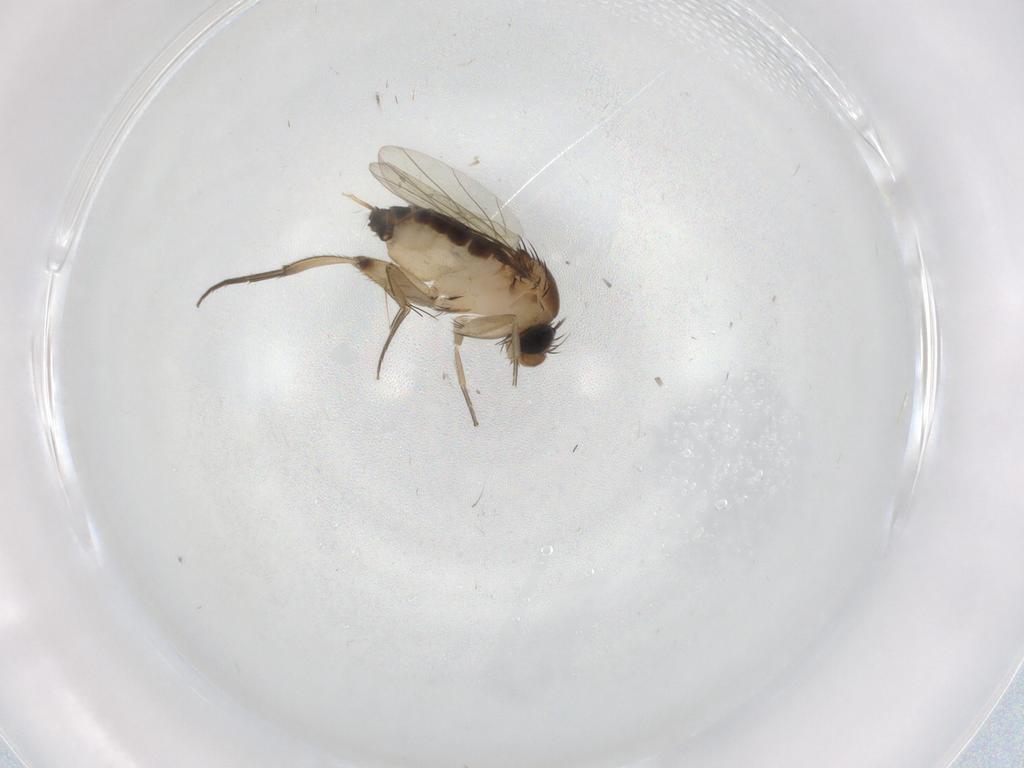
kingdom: Animalia
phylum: Arthropoda
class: Insecta
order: Diptera
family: Phoridae
